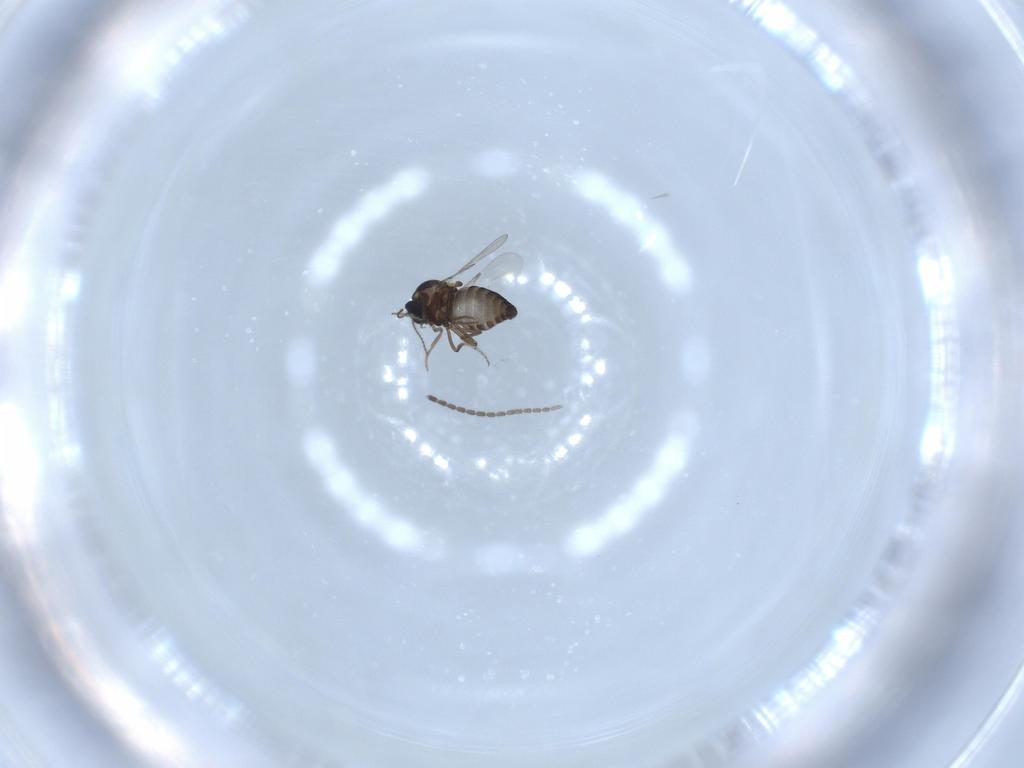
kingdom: Animalia
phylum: Arthropoda
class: Insecta
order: Diptera
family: Ceratopogonidae
